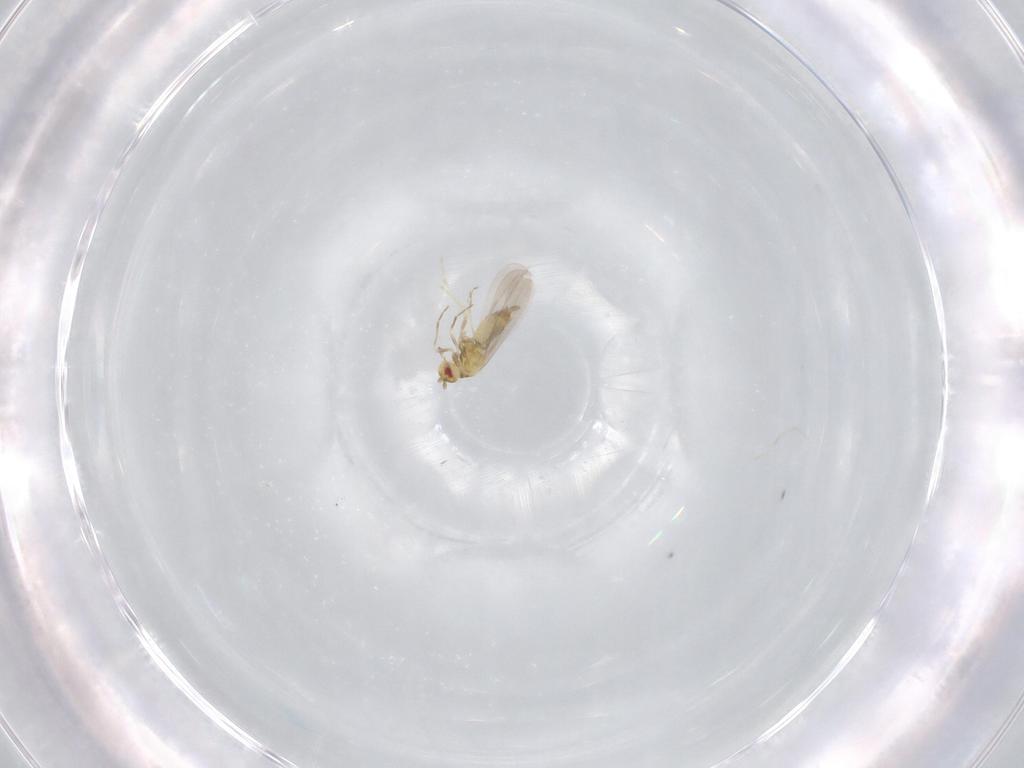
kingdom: Animalia
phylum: Arthropoda
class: Insecta
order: Hemiptera
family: Aleyrodidae
